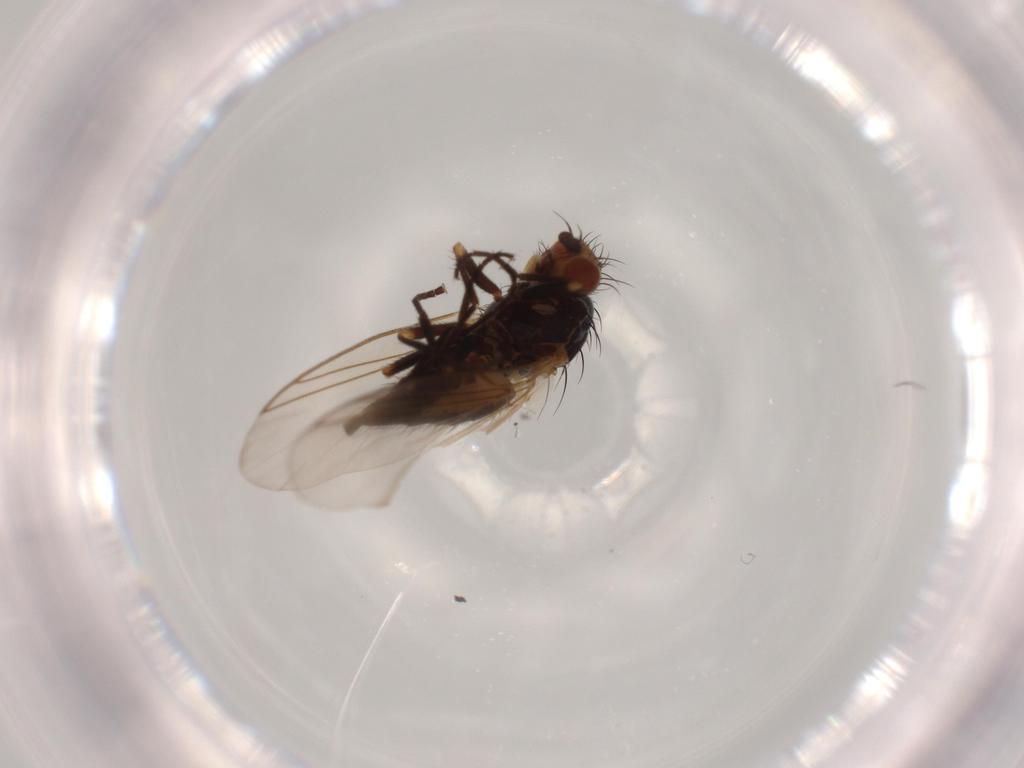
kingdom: Animalia
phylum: Arthropoda
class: Insecta
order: Diptera
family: Agromyzidae
